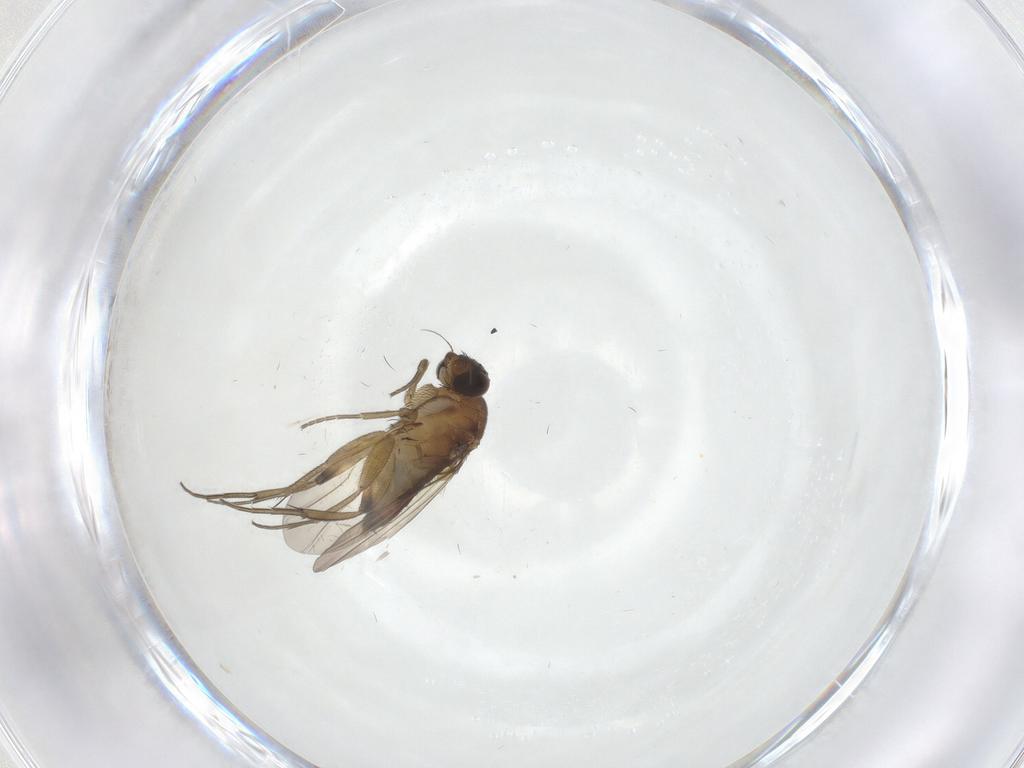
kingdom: Animalia
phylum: Arthropoda
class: Insecta
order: Diptera
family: Phoridae
